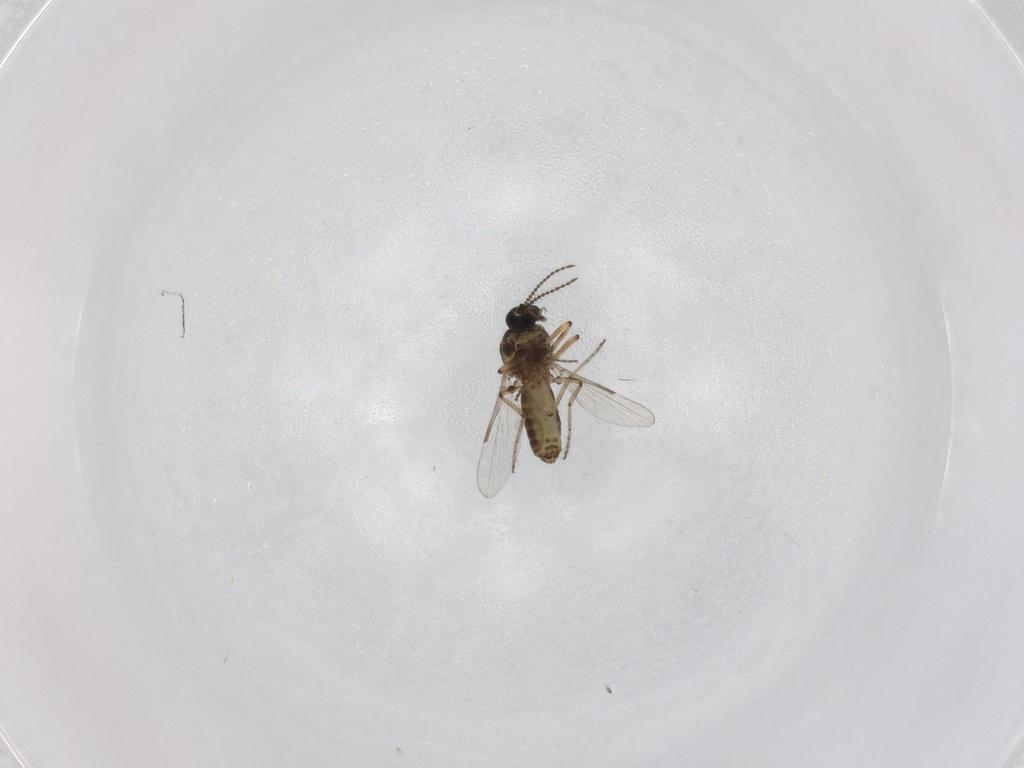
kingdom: Animalia
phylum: Arthropoda
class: Insecta
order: Diptera
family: Ceratopogonidae
